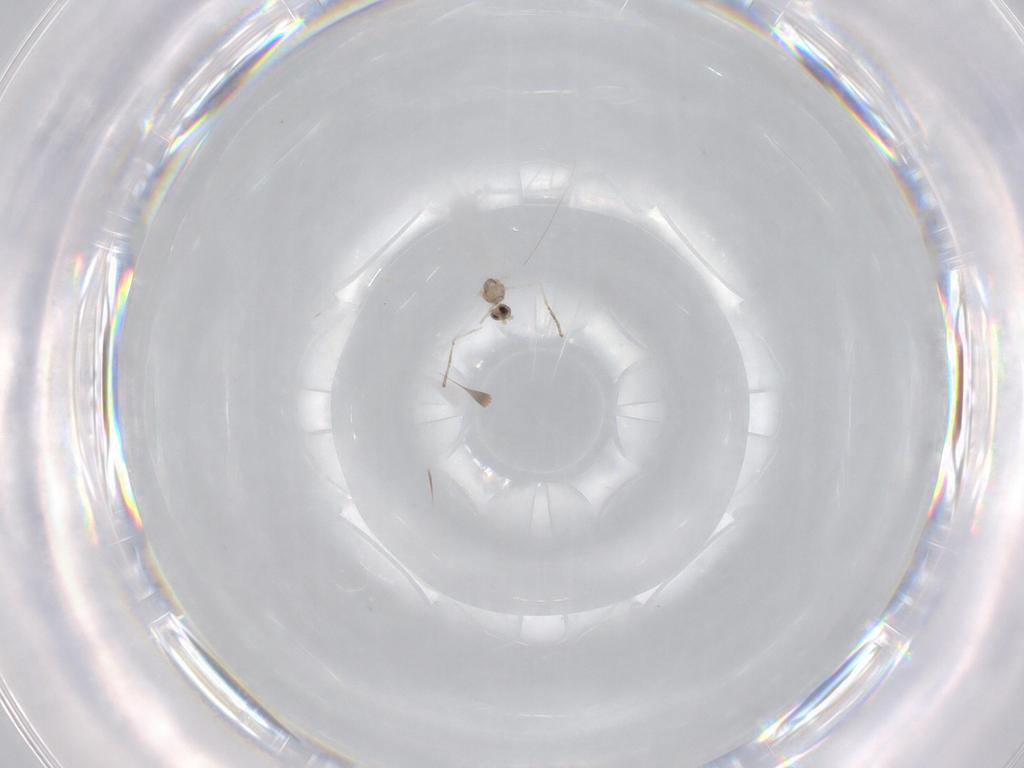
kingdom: Animalia
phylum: Arthropoda
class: Insecta
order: Diptera
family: Cecidomyiidae
